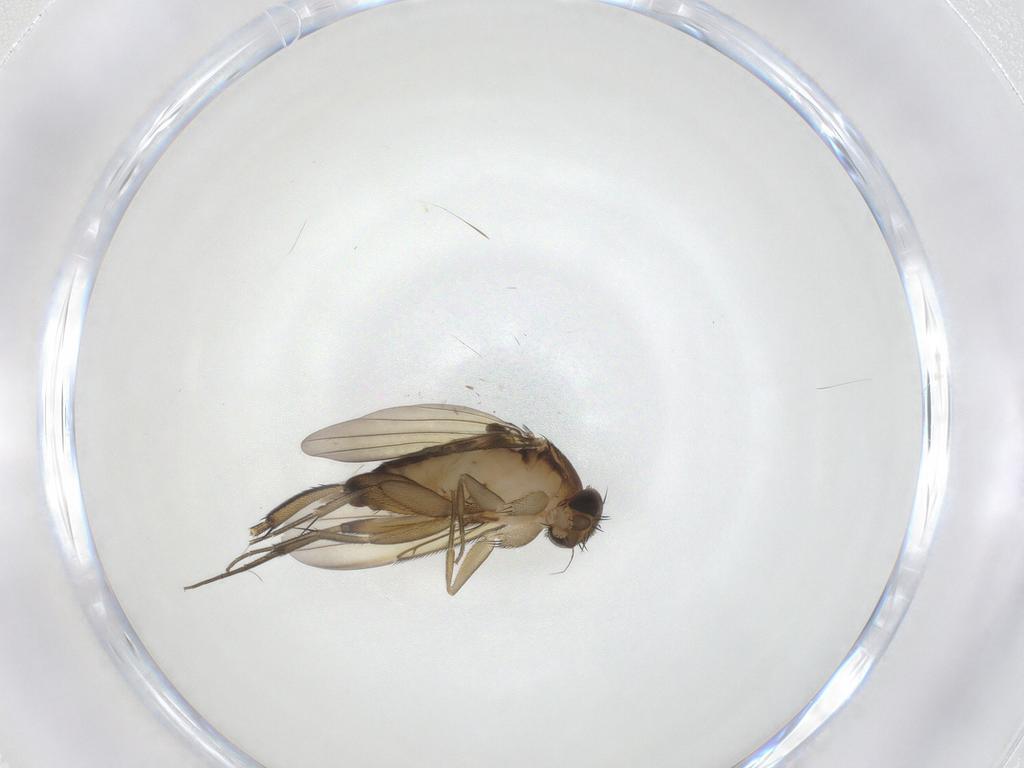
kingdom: Animalia
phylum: Arthropoda
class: Insecta
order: Diptera
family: Phoridae
